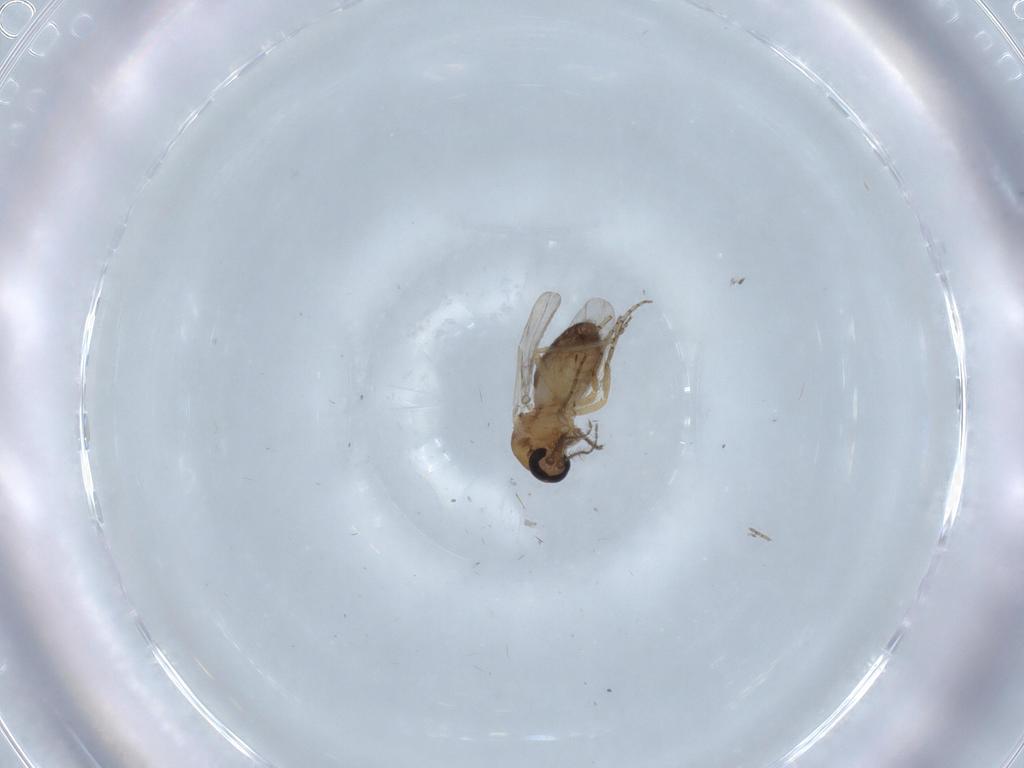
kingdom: Animalia
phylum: Arthropoda
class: Insecta
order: Diptera
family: Ceratopogonidae
